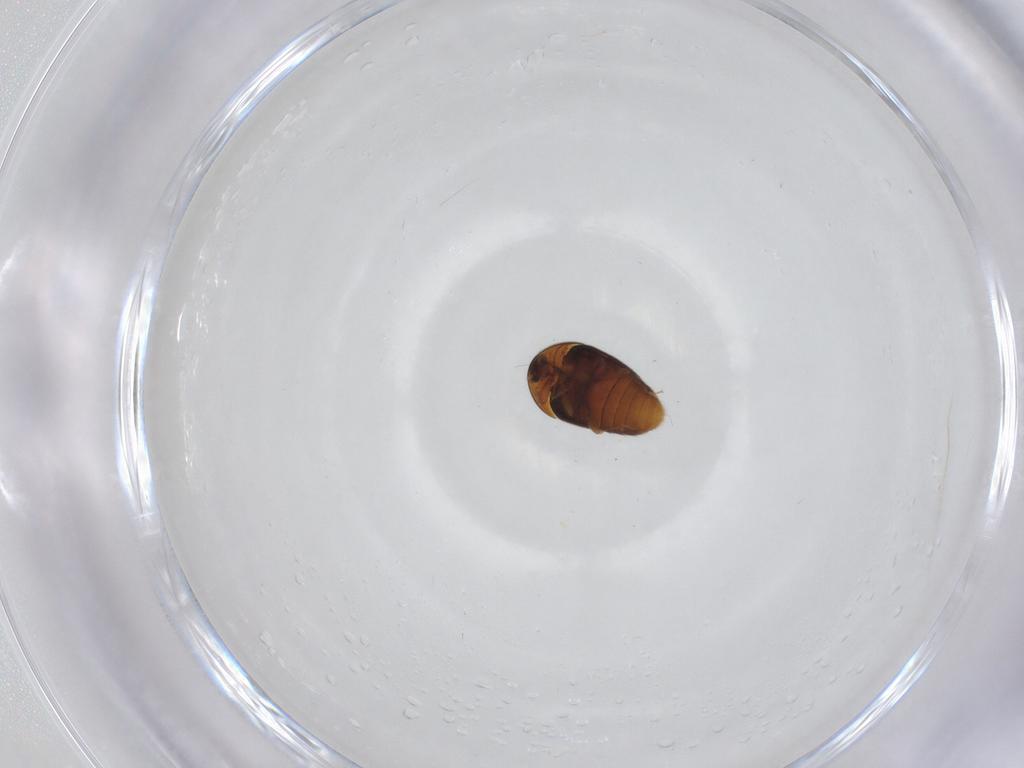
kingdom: Animalia
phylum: Arthropoda
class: Insecta
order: Coleoptera
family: Corylophidae
